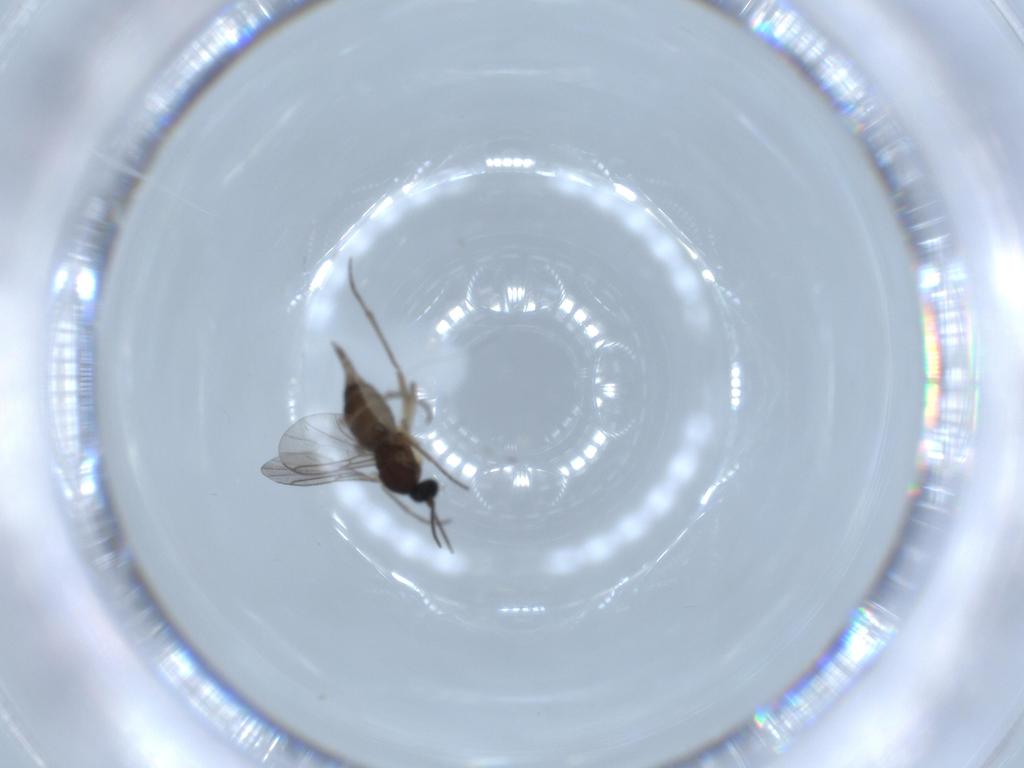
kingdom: Animalia
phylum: Arthropoda
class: Insecta
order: Diptera
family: Sciaridae
